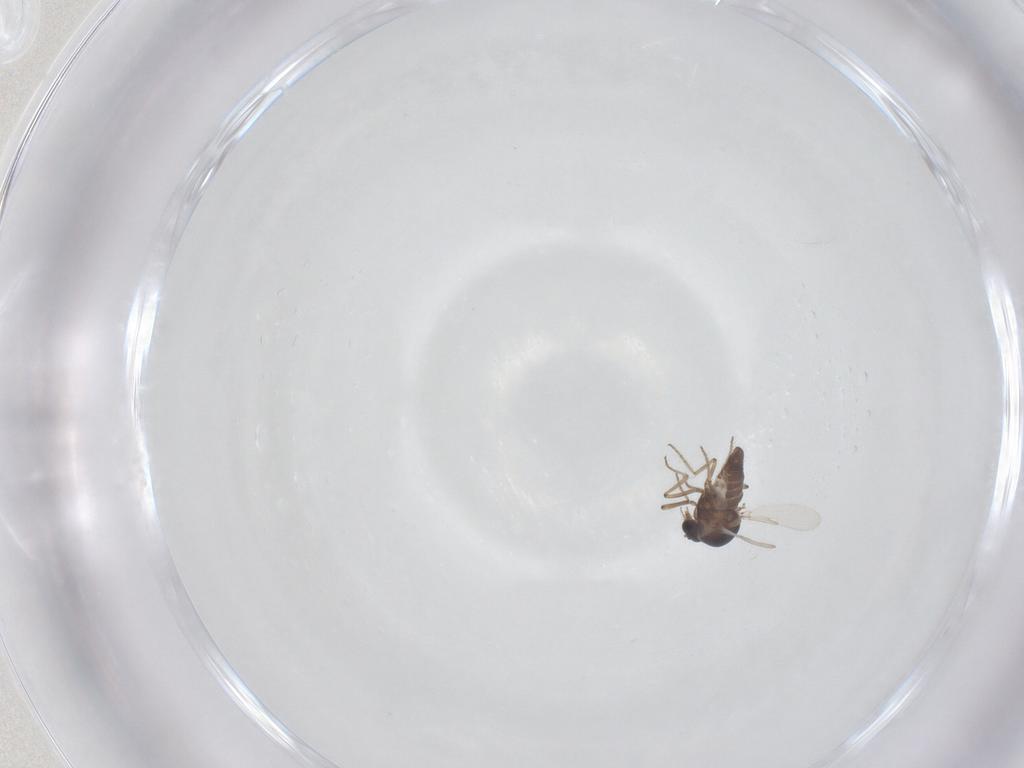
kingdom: Animalia
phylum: Arthropoda
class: Insecta
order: Diptera
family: Ceratopogonidae
